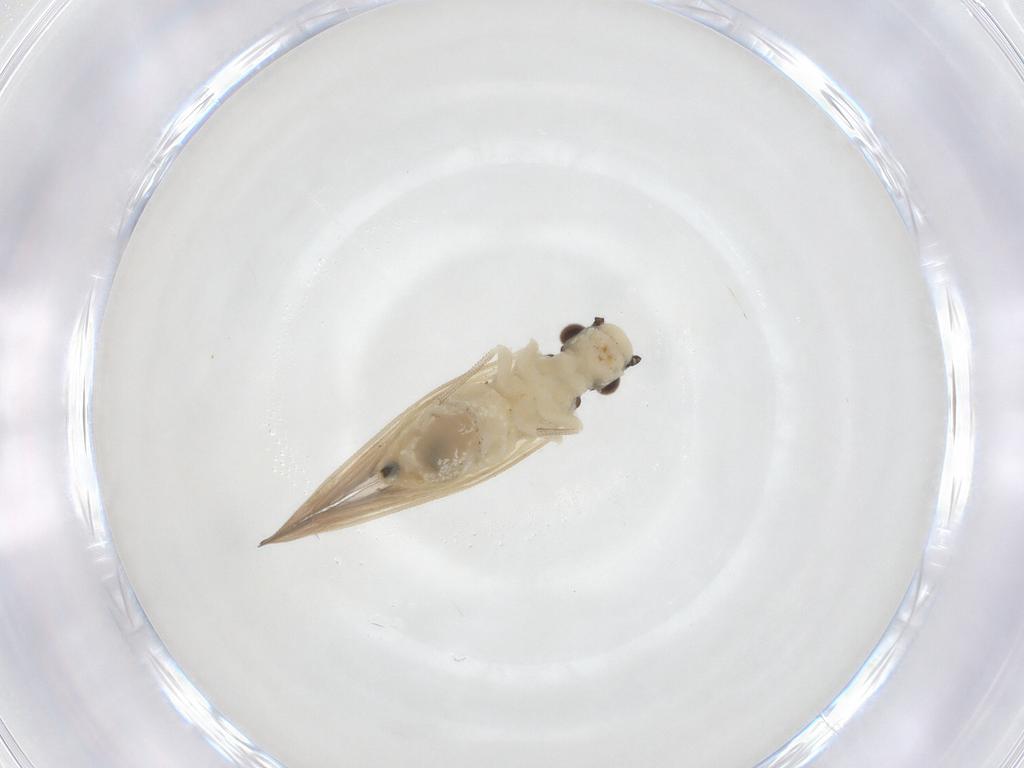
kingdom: Animalia
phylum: Arthropoda
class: Insecta
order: Psocodea
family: Caeciliusidae
